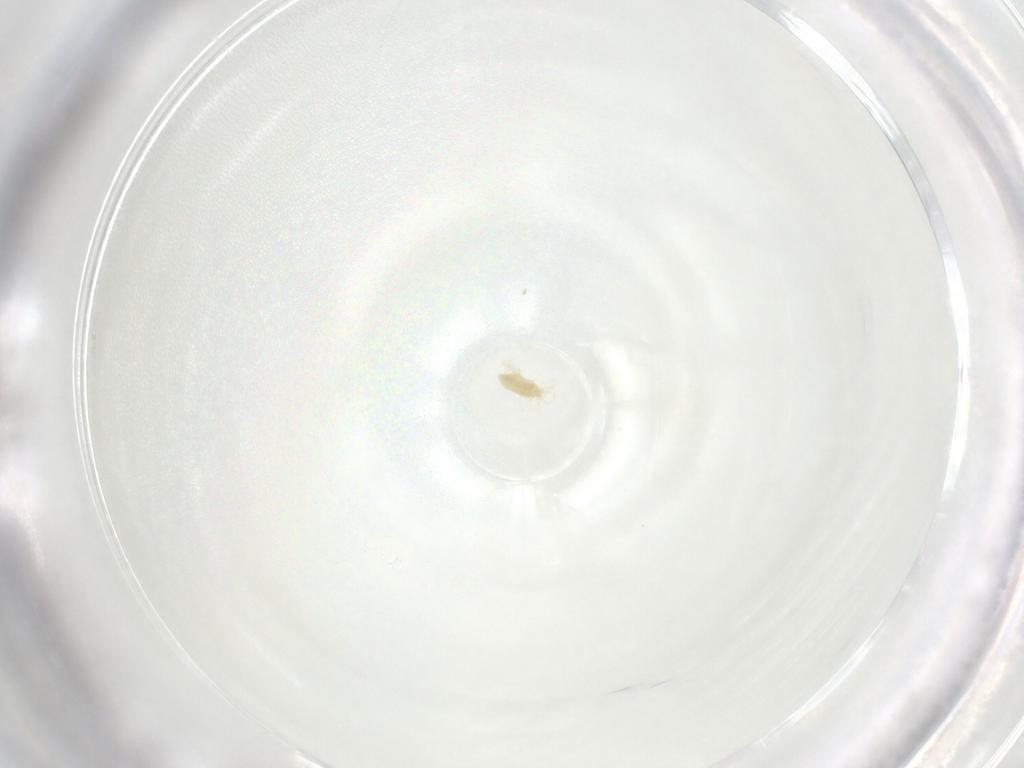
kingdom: Animalia
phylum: Arthropoda
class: Arachnida
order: Trombidiformes
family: Eupodidae
